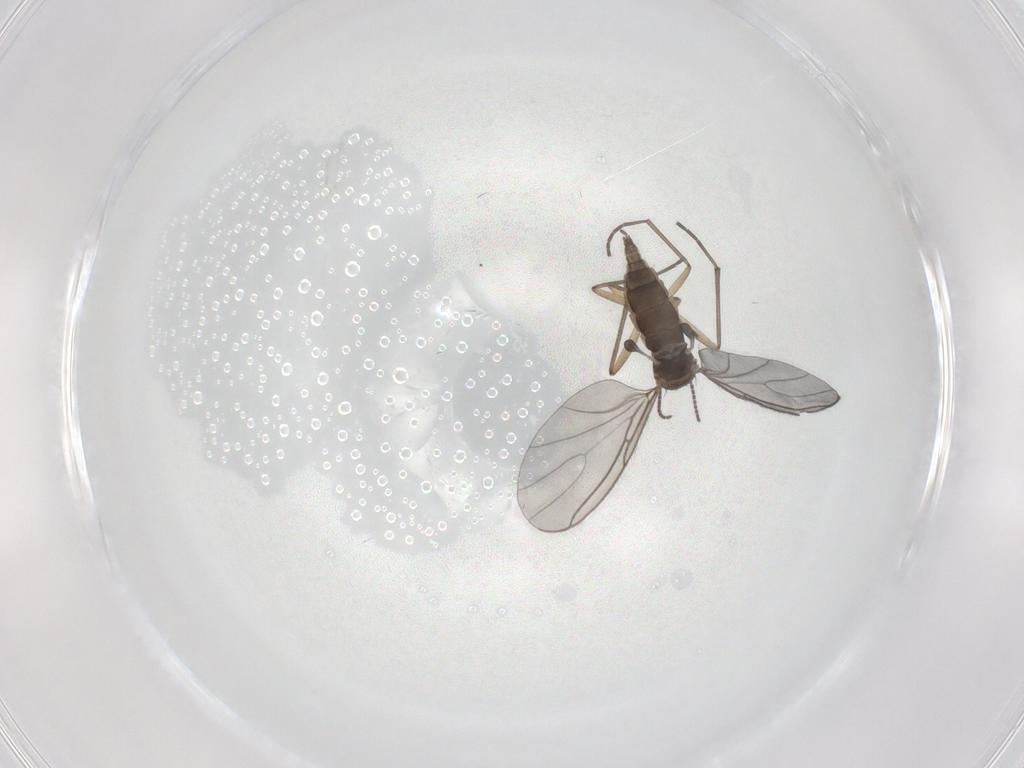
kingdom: Animalia
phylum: Arthropoda
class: Insecta
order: Diptera
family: Sciaridae
